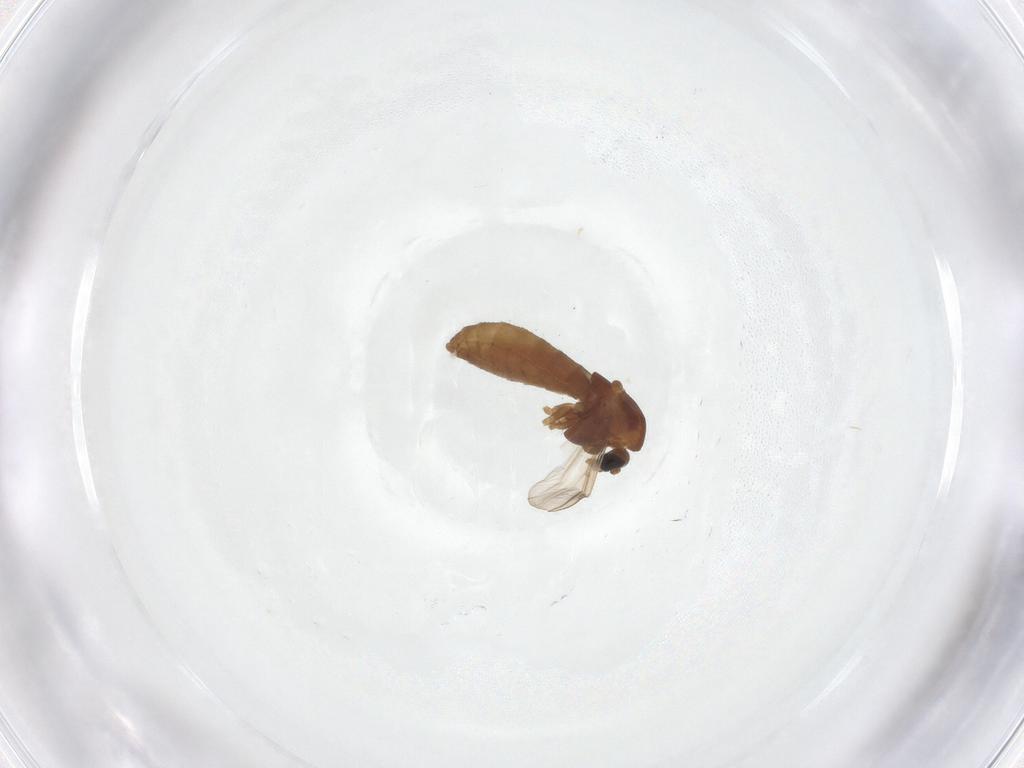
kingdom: Animalia
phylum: Arthropoda
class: Insecta
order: Diptera
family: Chironomidae
